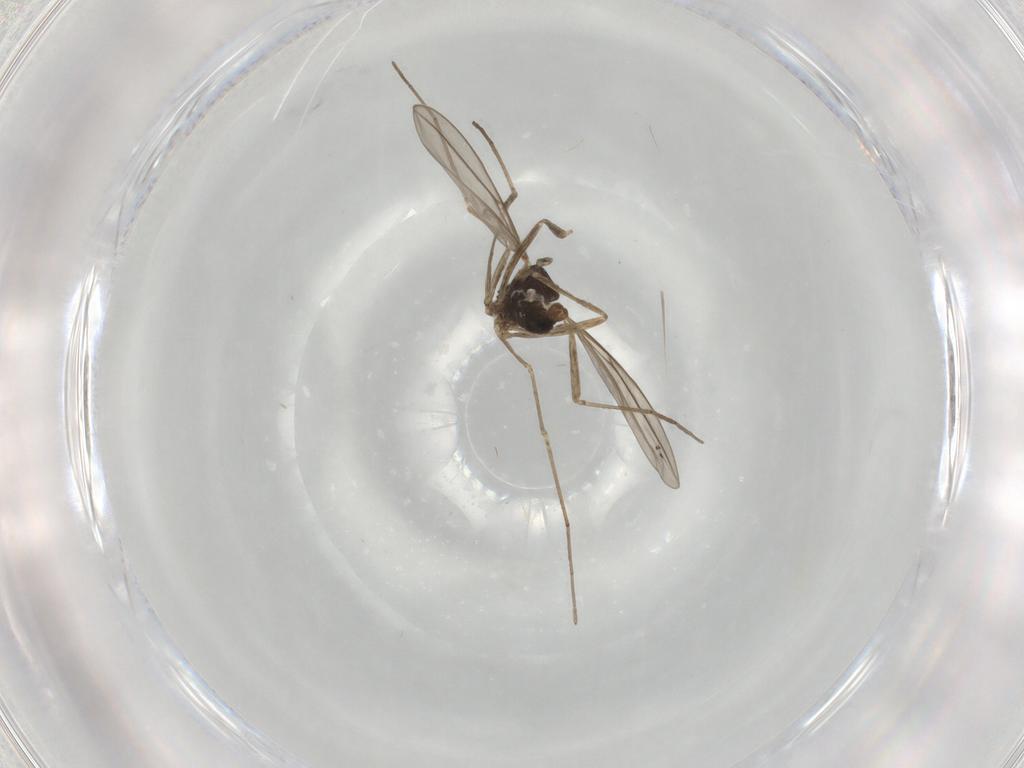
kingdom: Animalia
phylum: Arthropoda
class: Insecta
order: Diptera
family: Cecidomyiidae
